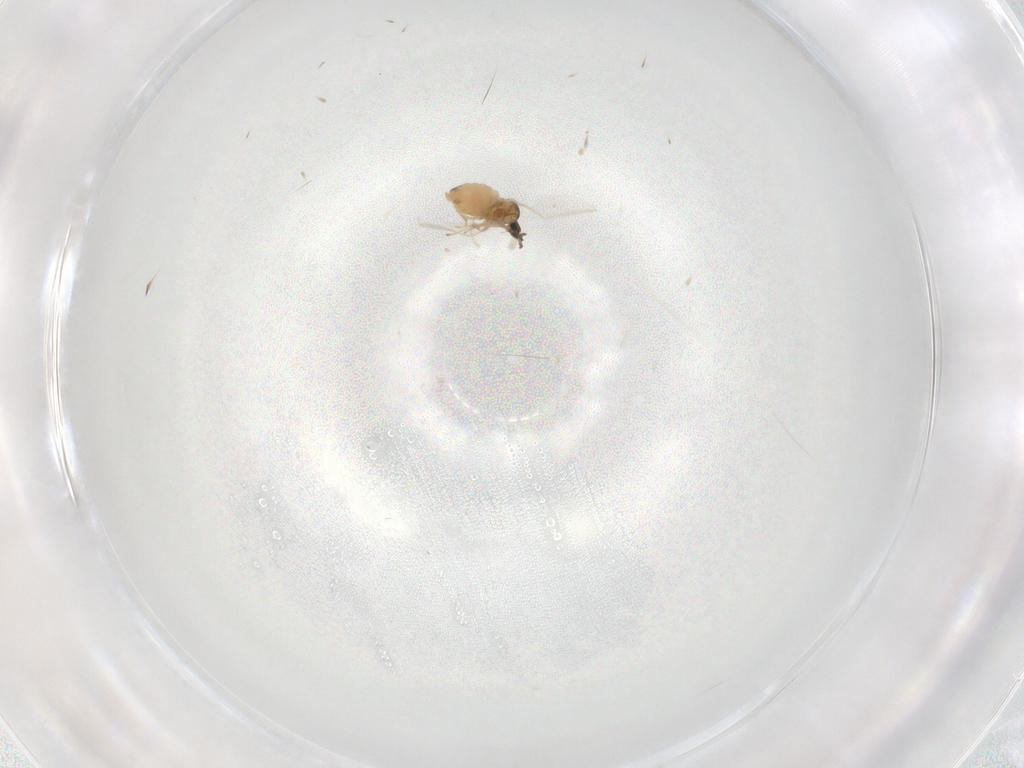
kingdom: Animalia
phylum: Arthropoda
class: Insecta
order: Diptera
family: Cecidomyiidae
